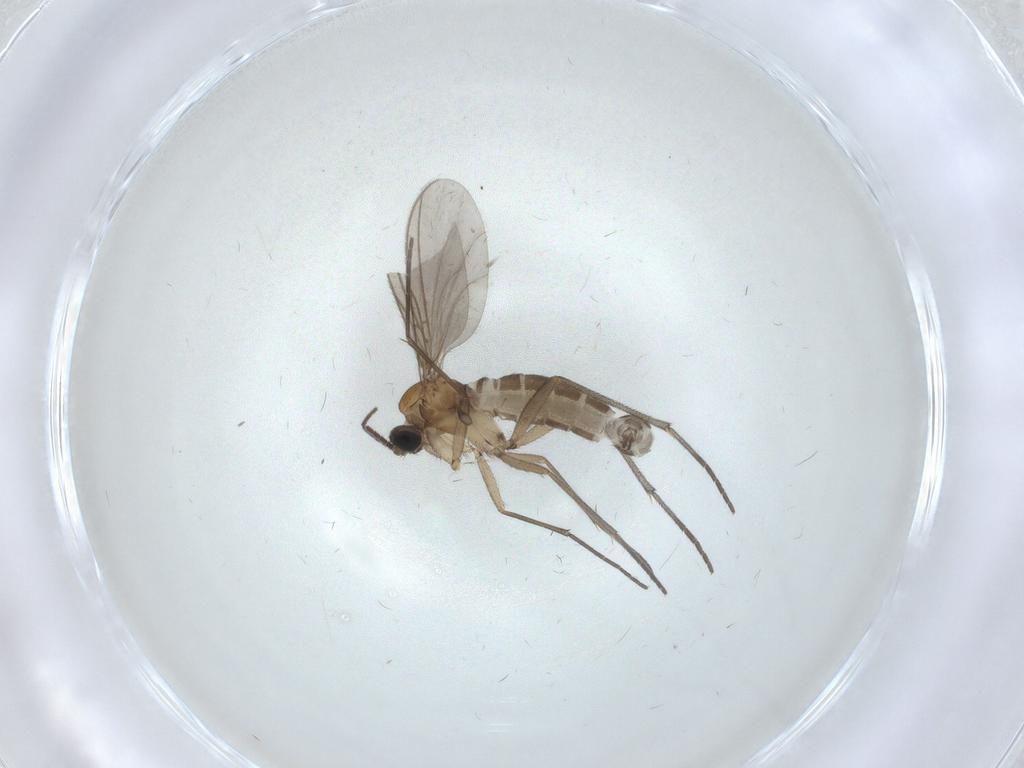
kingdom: Animalia
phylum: Arthropoda
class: Insecta
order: Diptera
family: Sciaridae
